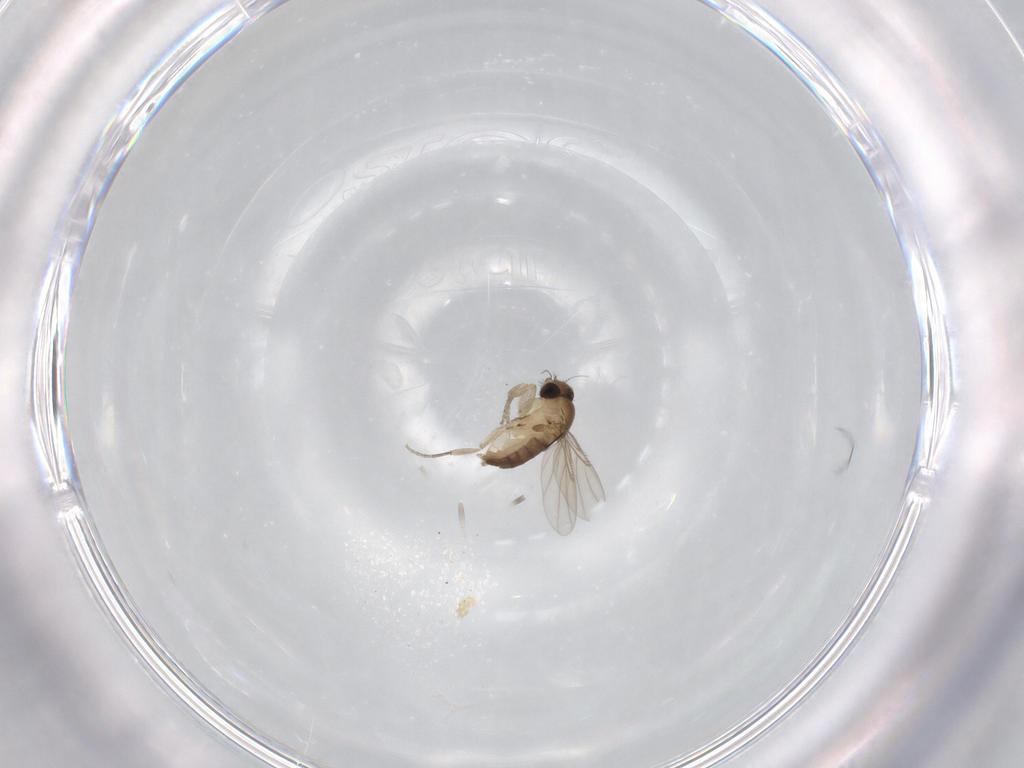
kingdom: Animalia
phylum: Arthropoda
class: Insecta
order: Diptera
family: Phoridae
